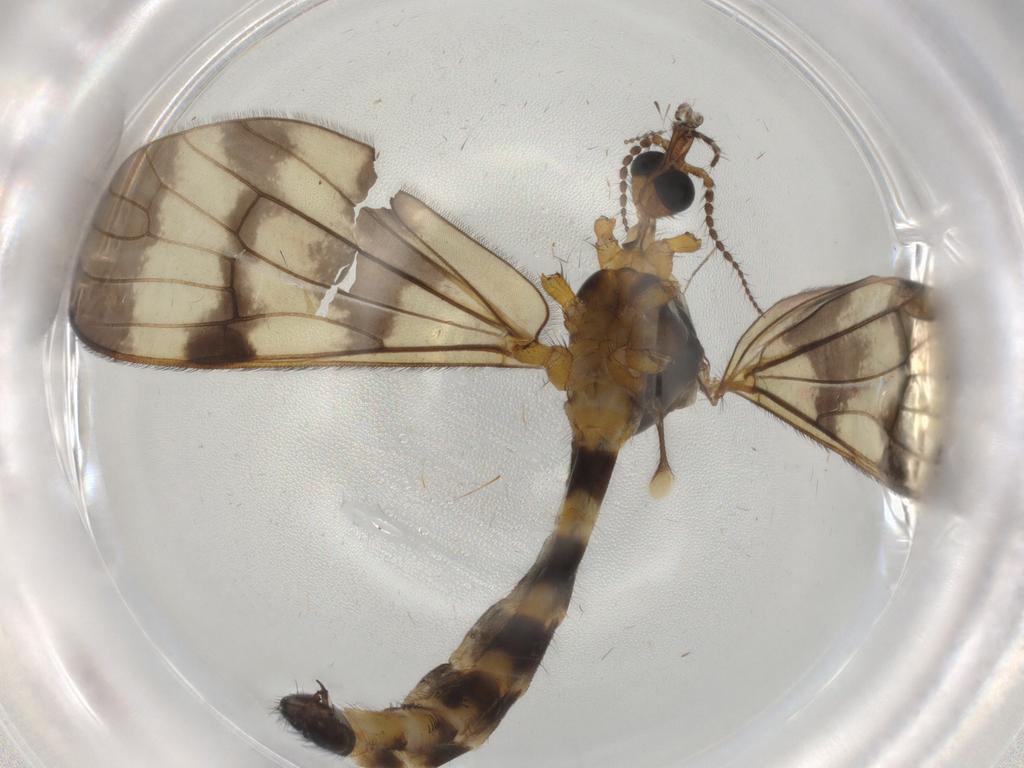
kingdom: Animalia
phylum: Arthropoda
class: Insecta
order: Diptera
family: Limoniidae
